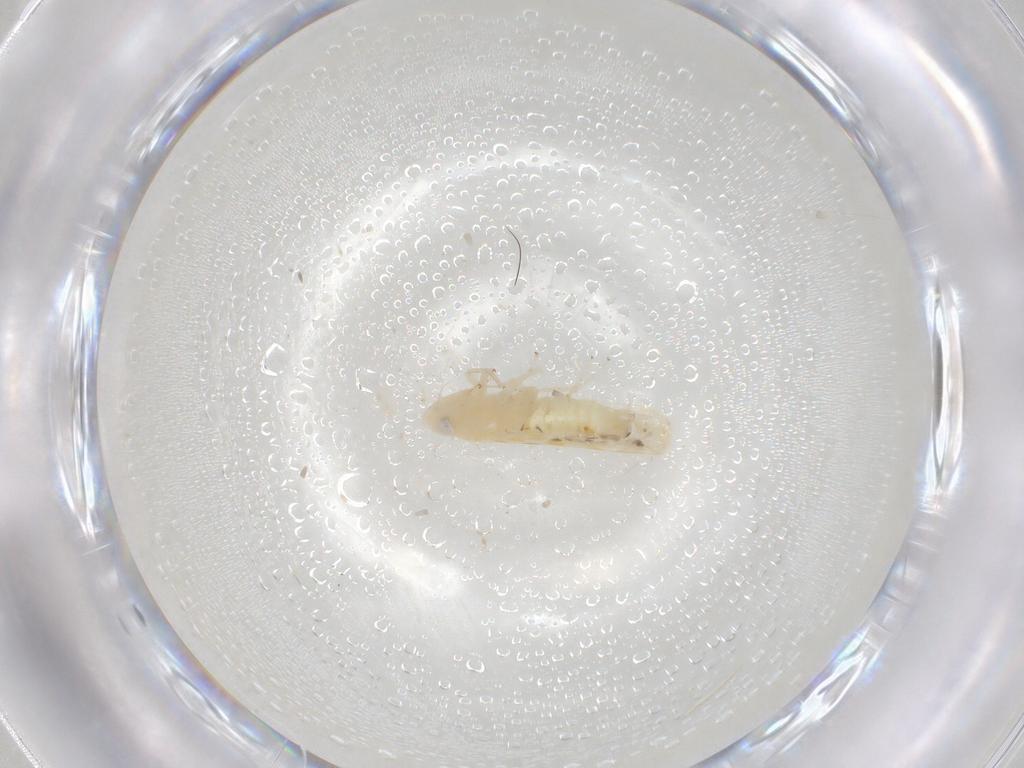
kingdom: Animalia
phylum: Arthropoda
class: Insecta
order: Hemiptera
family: Cicadellidae
